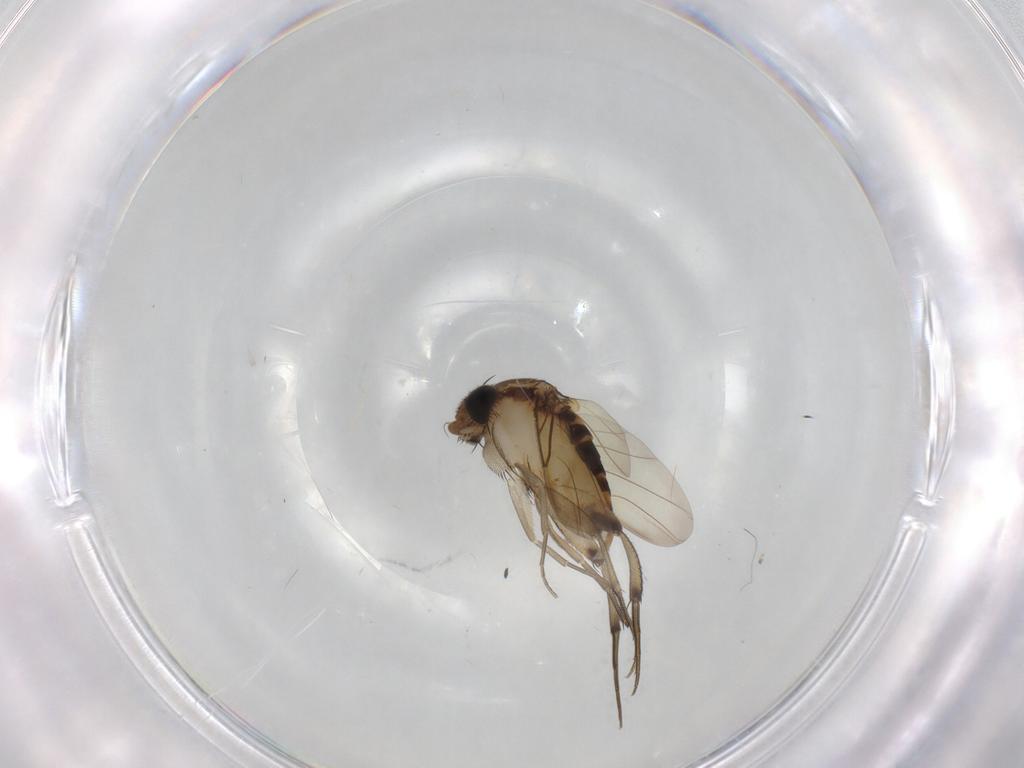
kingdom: Animalia
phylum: Arthropoda
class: Insecta
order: Diptera
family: Phoridae
